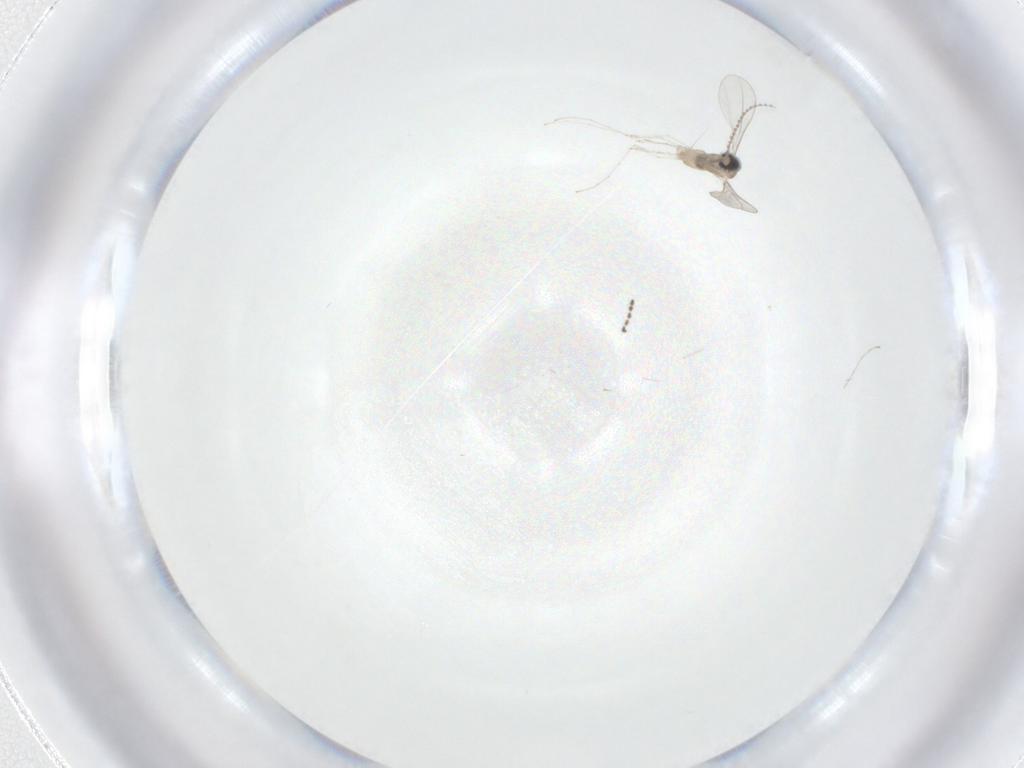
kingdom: Animalia
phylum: Arthropoda
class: Insecta
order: Diptera
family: Cecidomyiidae
